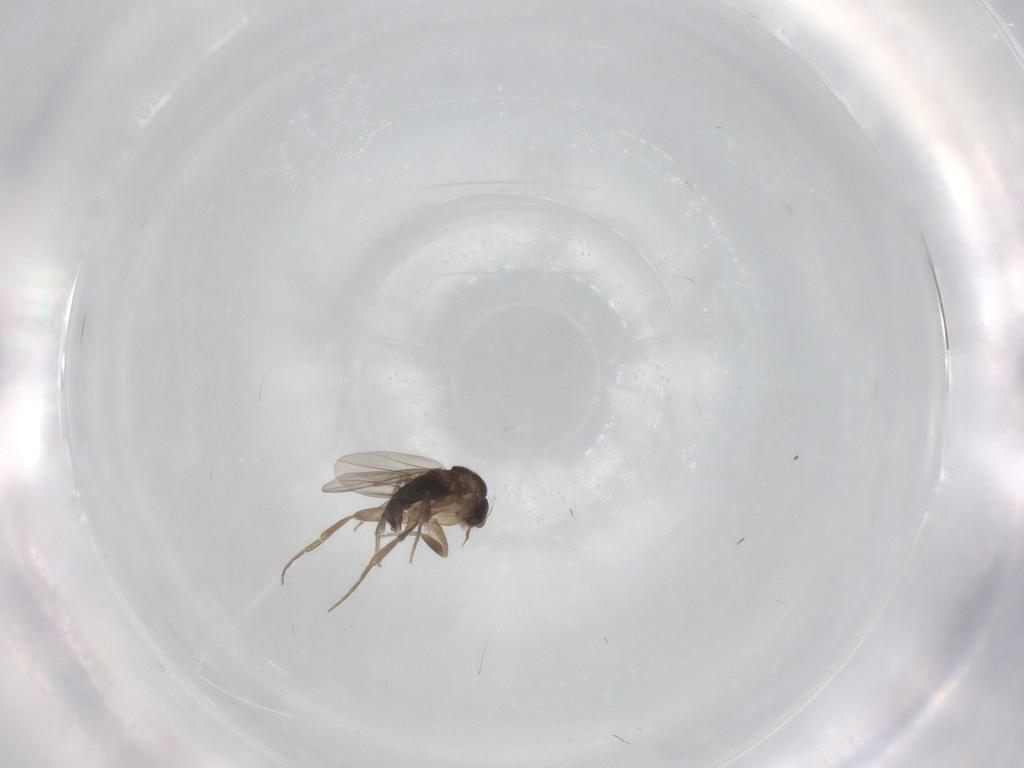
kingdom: Animalia
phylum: Arthropoda
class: Insecta
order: Diptera
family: Phoridae
